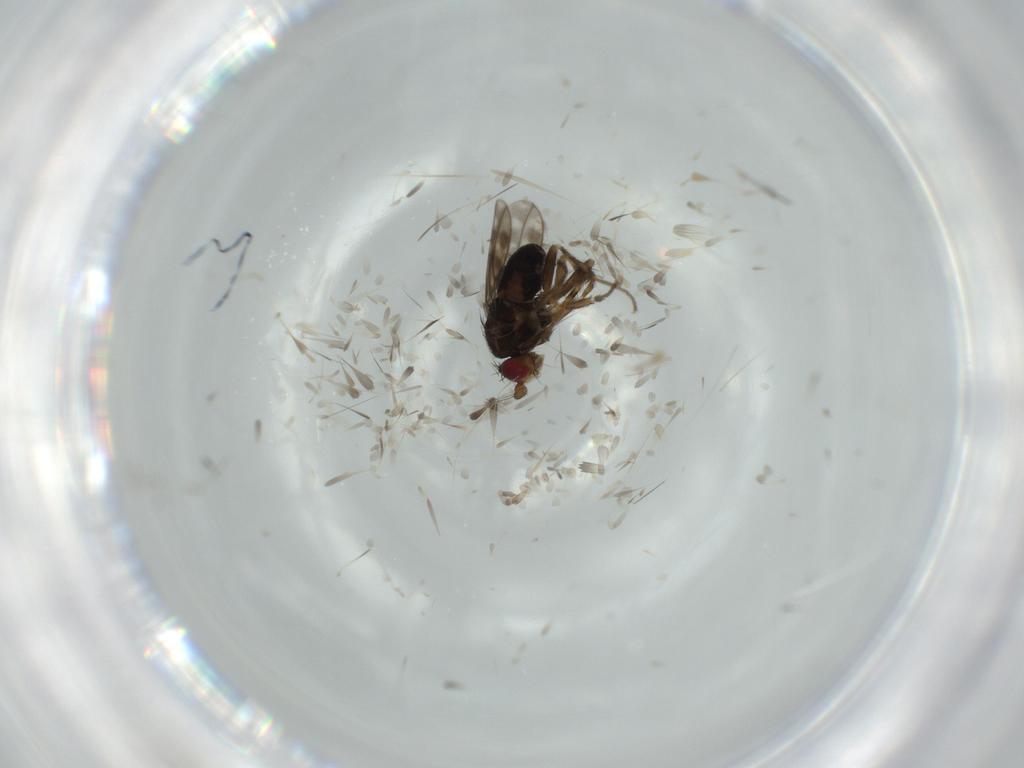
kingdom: Animalia
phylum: Arthropoda
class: Insecta
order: Diptera
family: Sphaeroceridae
